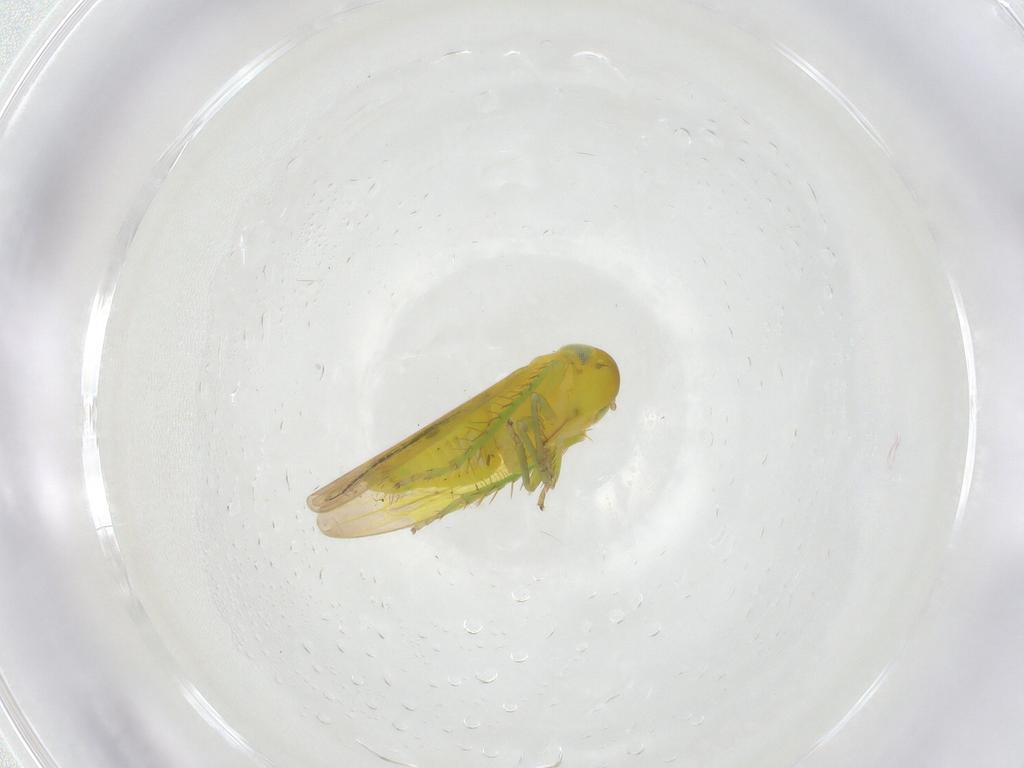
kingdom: Animalia
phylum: Arthropoda
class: Insecta
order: Hemiptera
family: Cicadellidae
